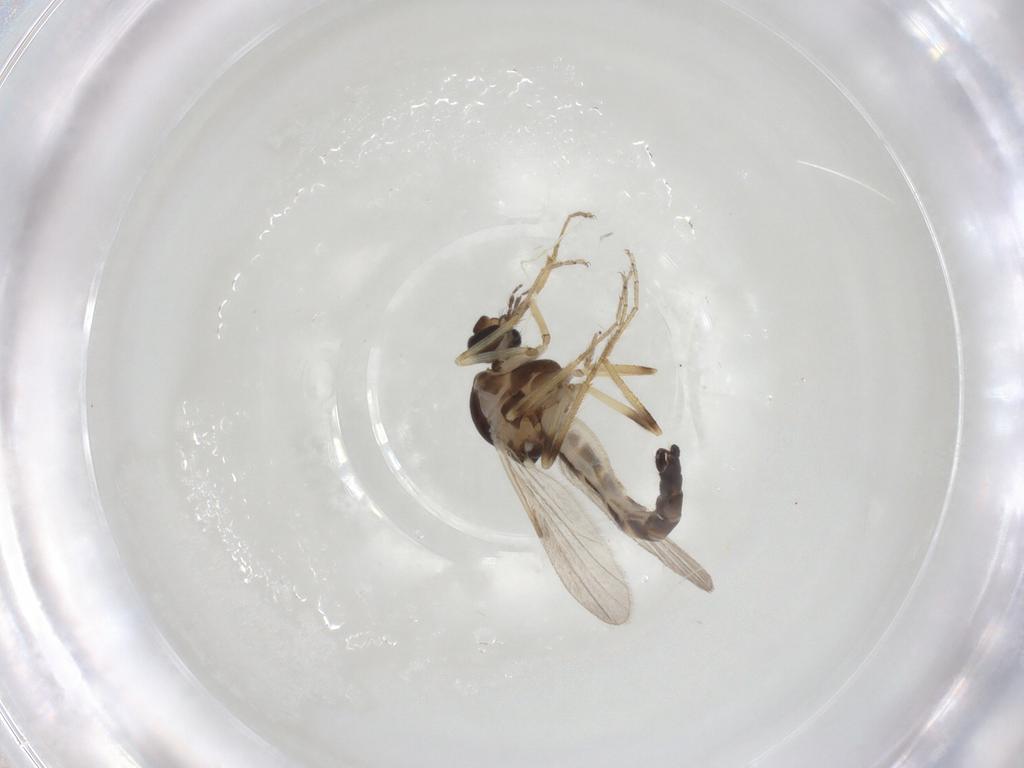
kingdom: Animalia
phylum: Arthropoda
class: Insecta
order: Diptera
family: Ceratopogonidae
